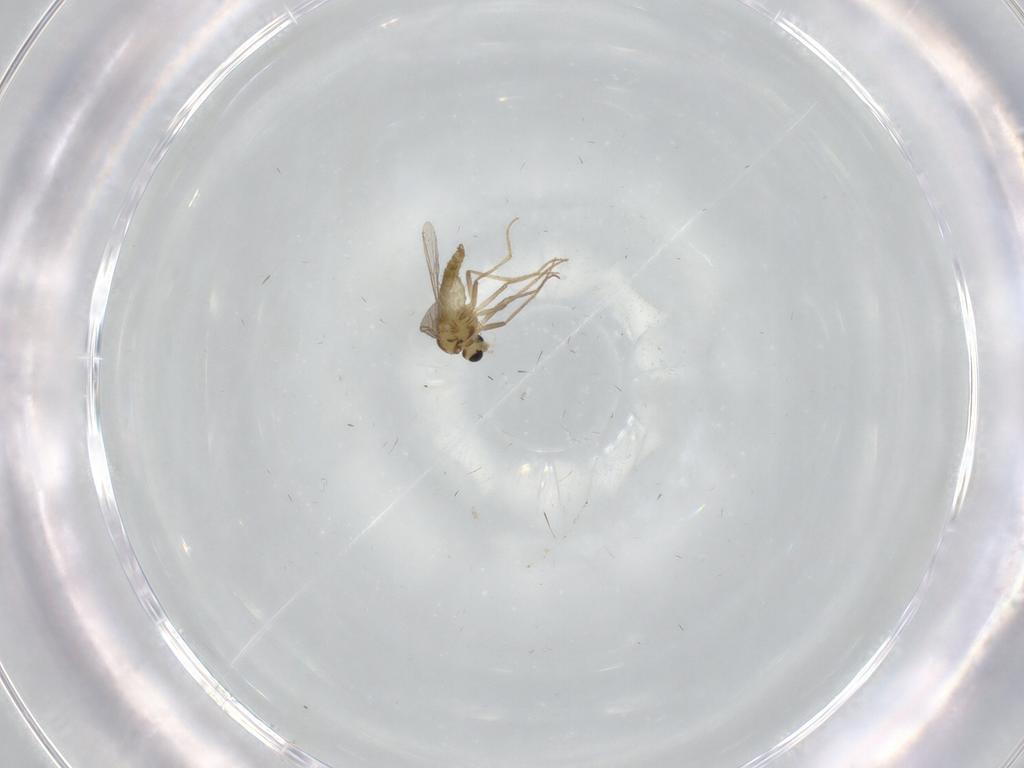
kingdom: Animalia
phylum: Arthropoda
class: Insecta
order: Diptera
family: Chironomidae
